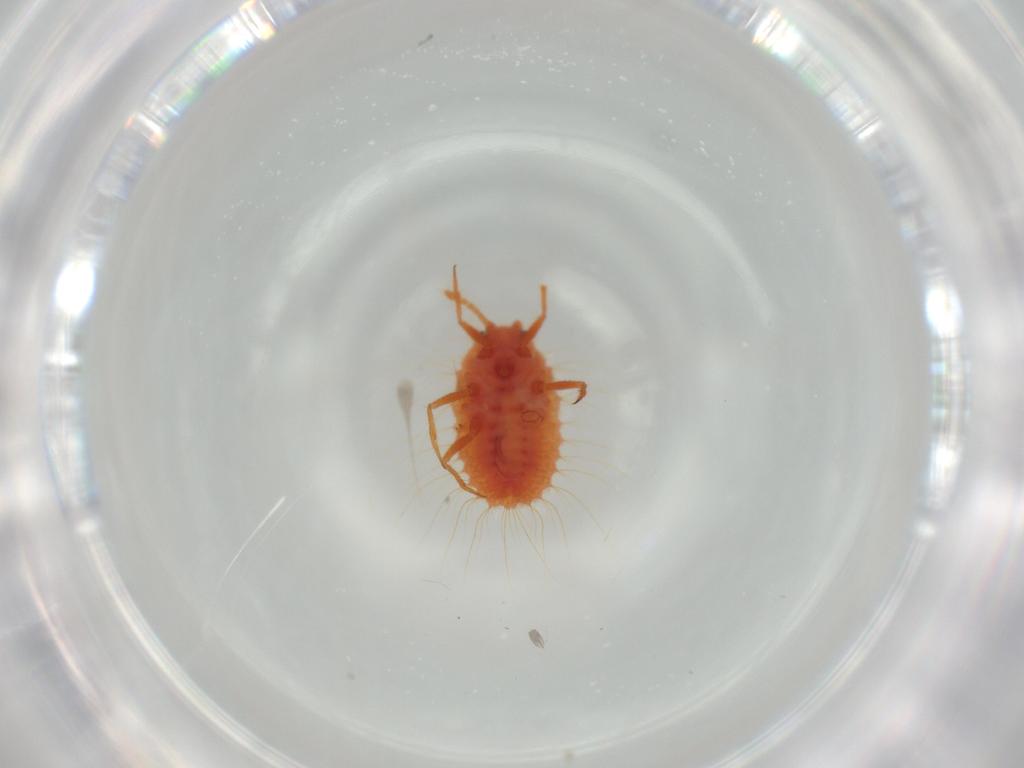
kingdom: Animalia
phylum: Arthropoda
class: Insecta
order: Hemiptera
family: Coccoidea_incertae_sedis
